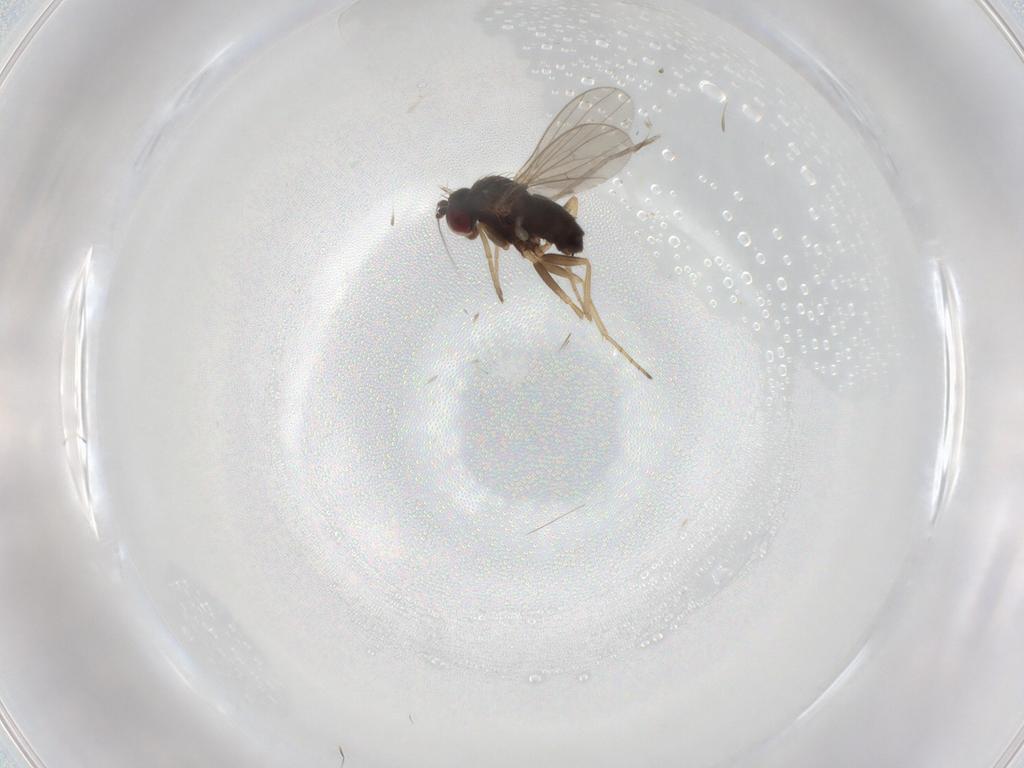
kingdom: Animalia
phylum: Arthropoda
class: Insecta
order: Diptera
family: Dolichopodidae
